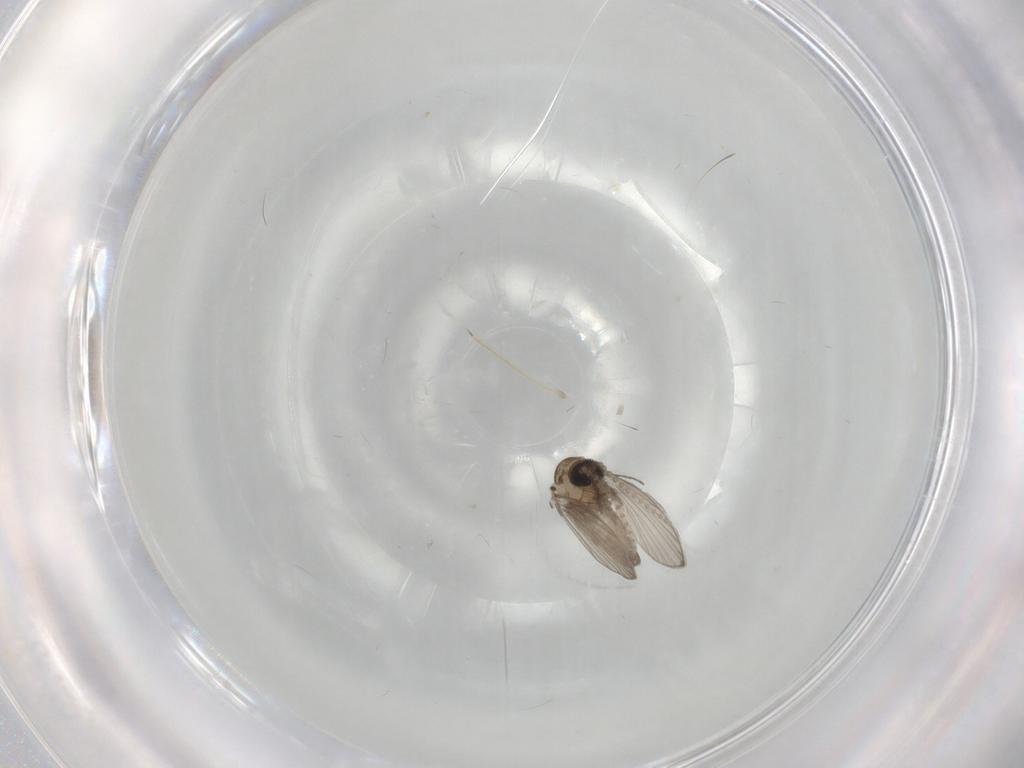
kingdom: Animalia
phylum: Arthropoda
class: Insecta
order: Diptera
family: Psychodidae
